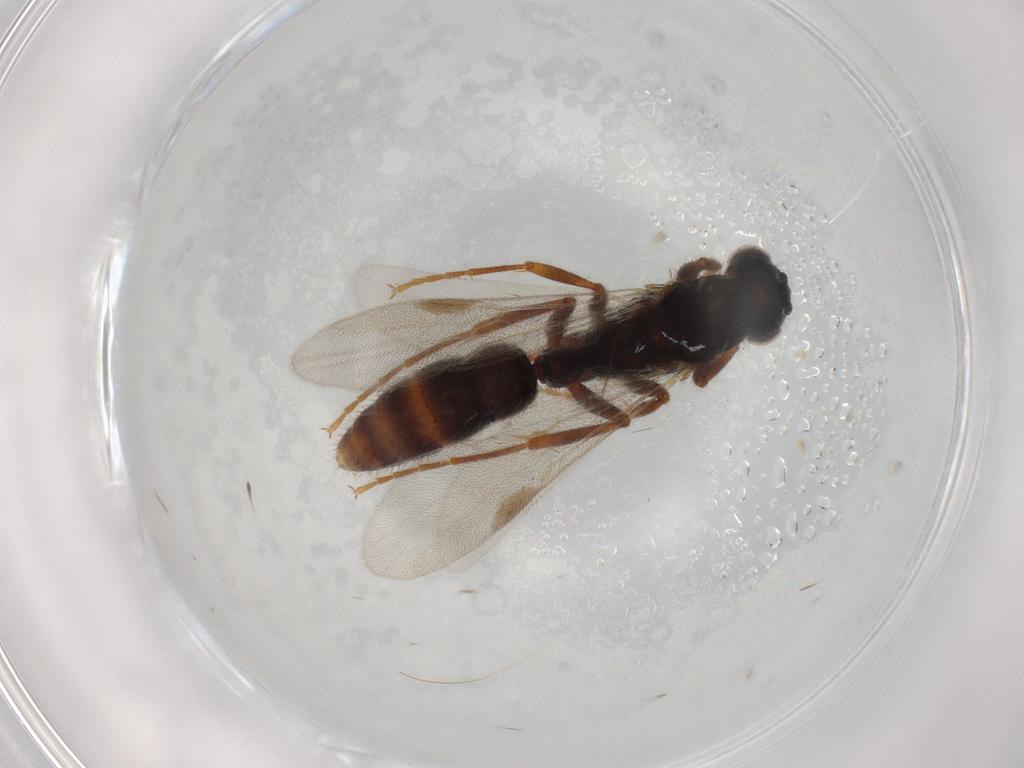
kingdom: Animalia
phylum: Arthropoda
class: Insecta
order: Hymenoptera
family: Formicidae
